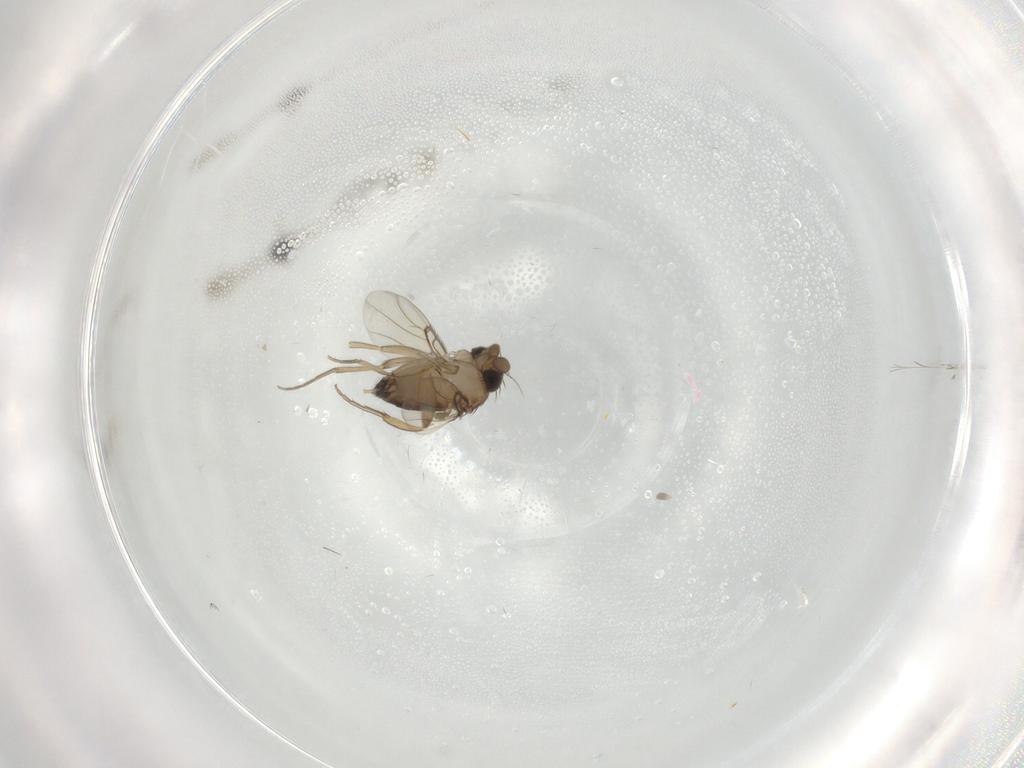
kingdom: Animalia
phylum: Arthropoda
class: Insecta
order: Diptera
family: Phoridae
